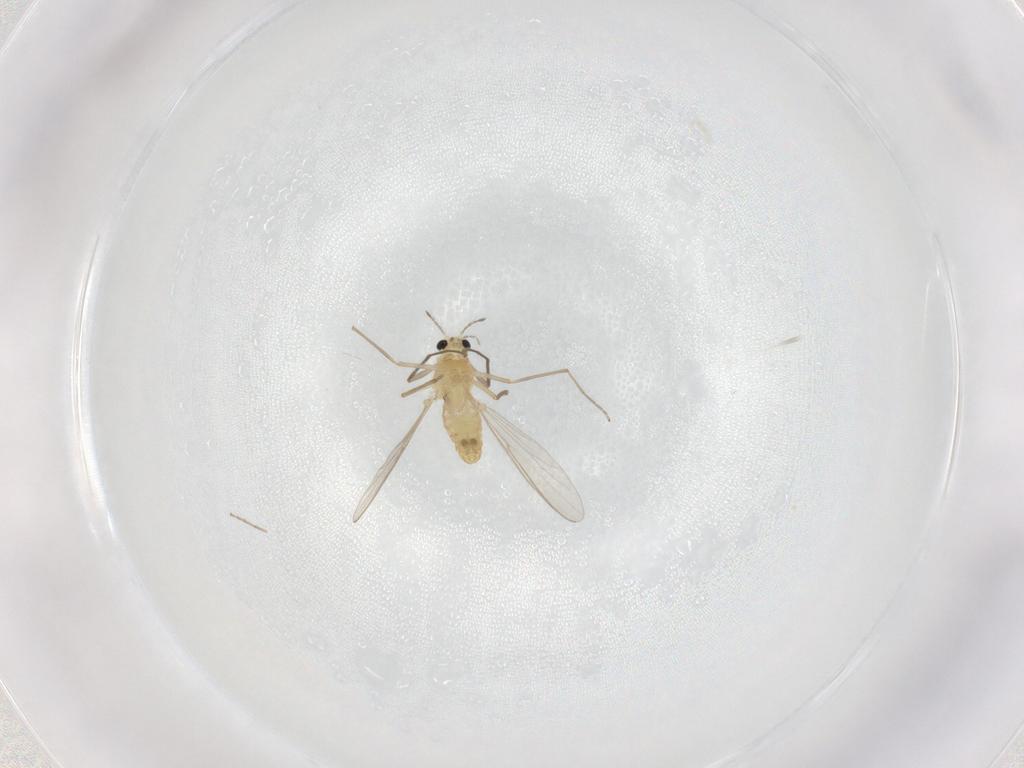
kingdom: Animalia
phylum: Arthropoda
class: Insecta
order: Diptera
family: Chironomidae
